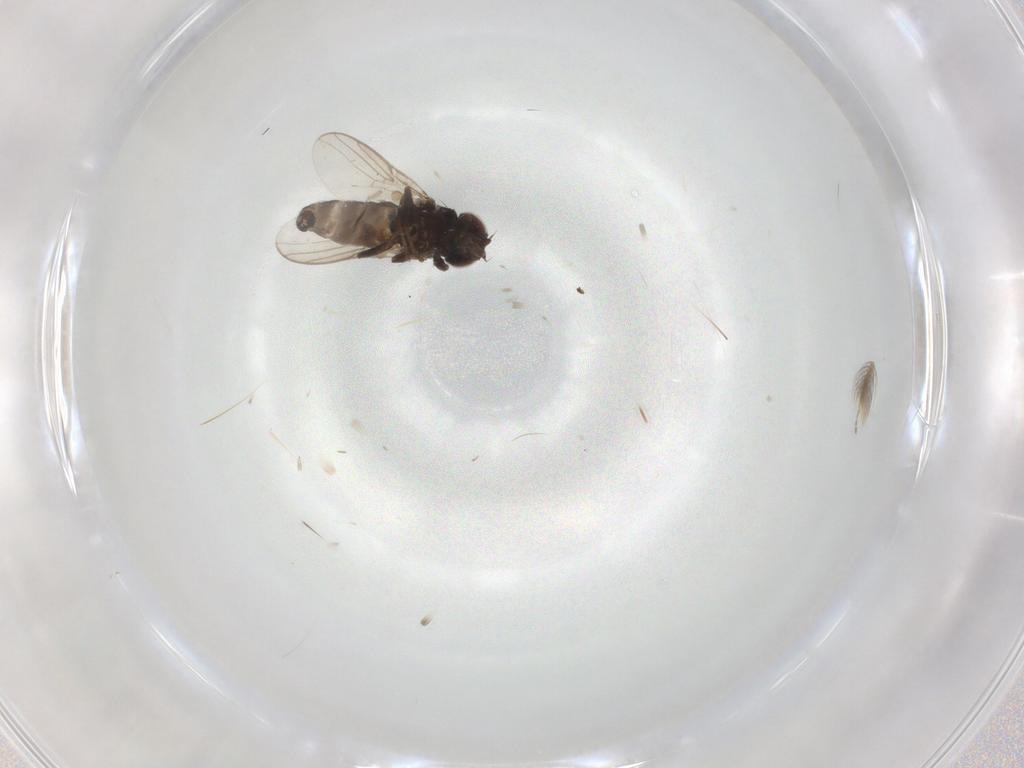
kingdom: Animalia
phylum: Arthropoda
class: Insecta
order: Diptera
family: Chloropidae
